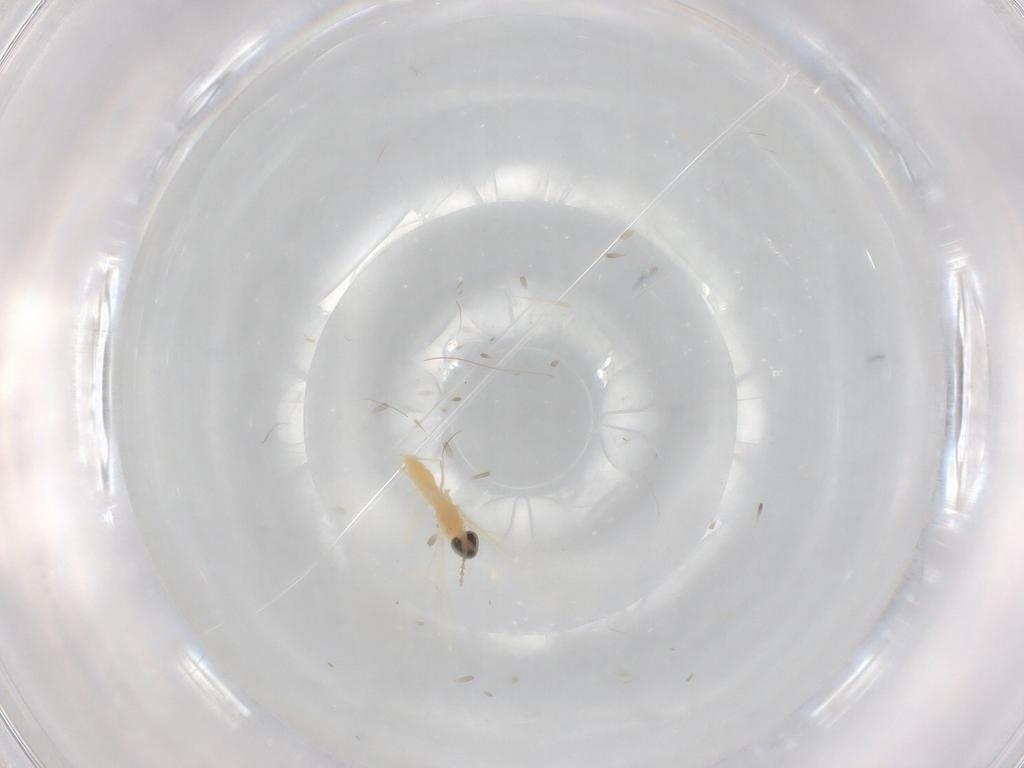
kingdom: Animalia
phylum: Arthropoda
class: Insecta
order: Diptera
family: Cecidomyiidae
